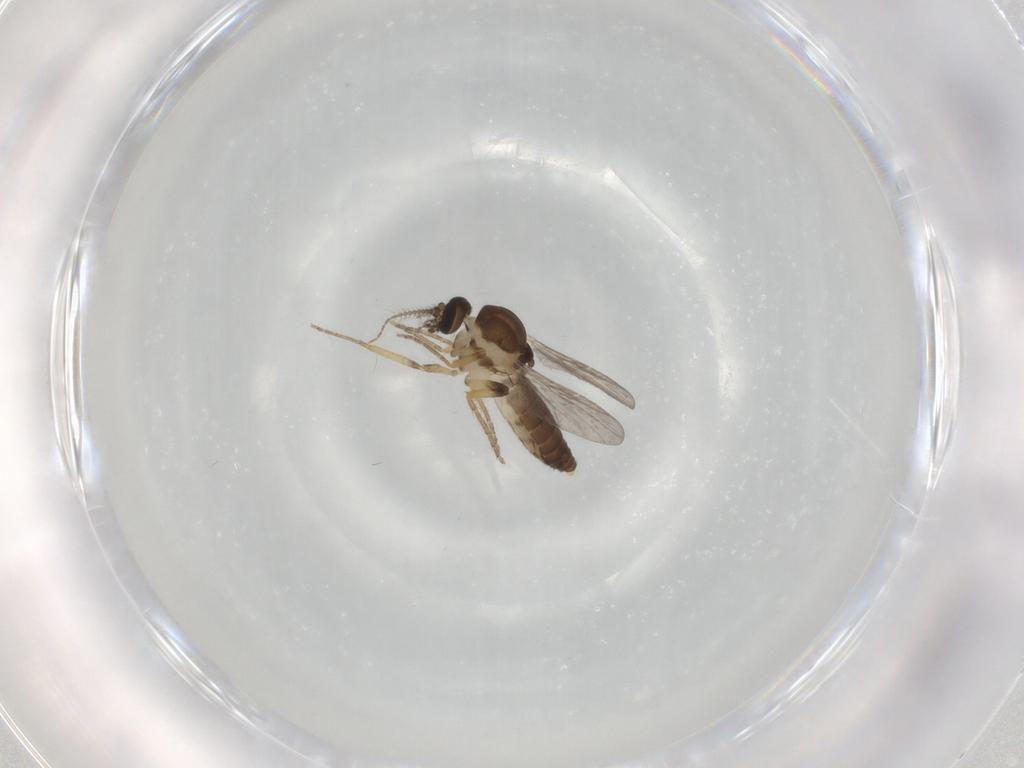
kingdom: Animalia
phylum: Arthropoda
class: Insecta
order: Diptera
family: Ceratopogonidae
